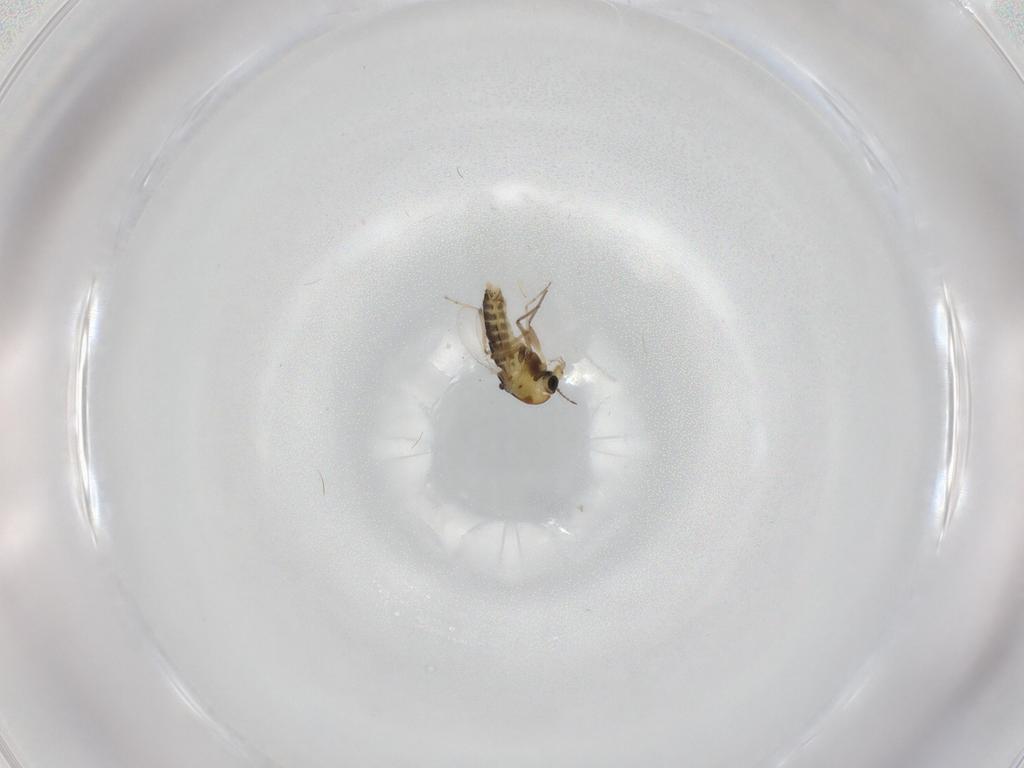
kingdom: Animalia
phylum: Arthropoda
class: Insecta
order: Diptera
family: Chironomidae
